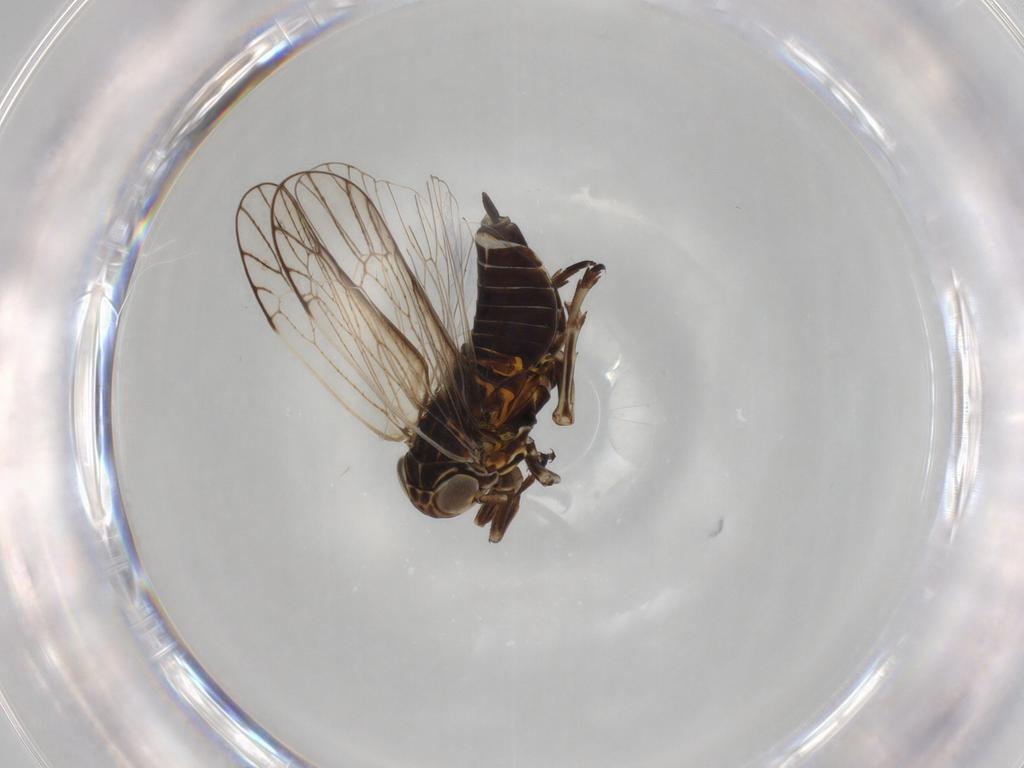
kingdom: Animalia
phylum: Arthropoda
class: Insecta
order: Hemiptera
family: Delphacidae
